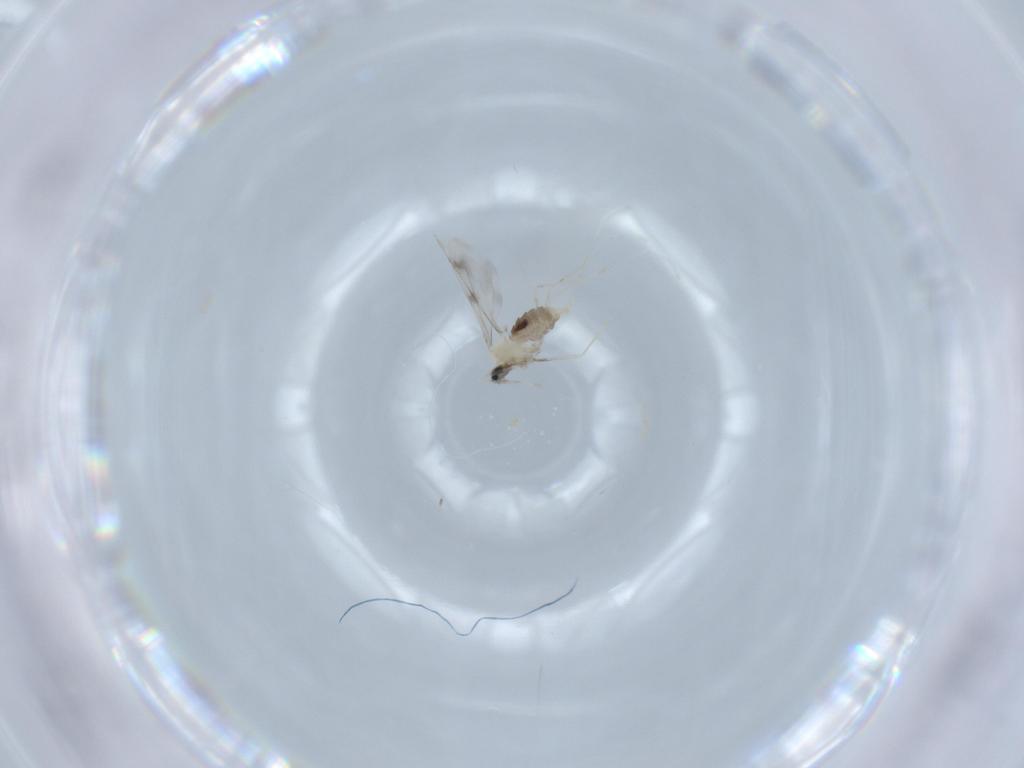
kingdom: Animalia
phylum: Arthropoda
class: Insecta
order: Diptera
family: Cecidomyiidae
